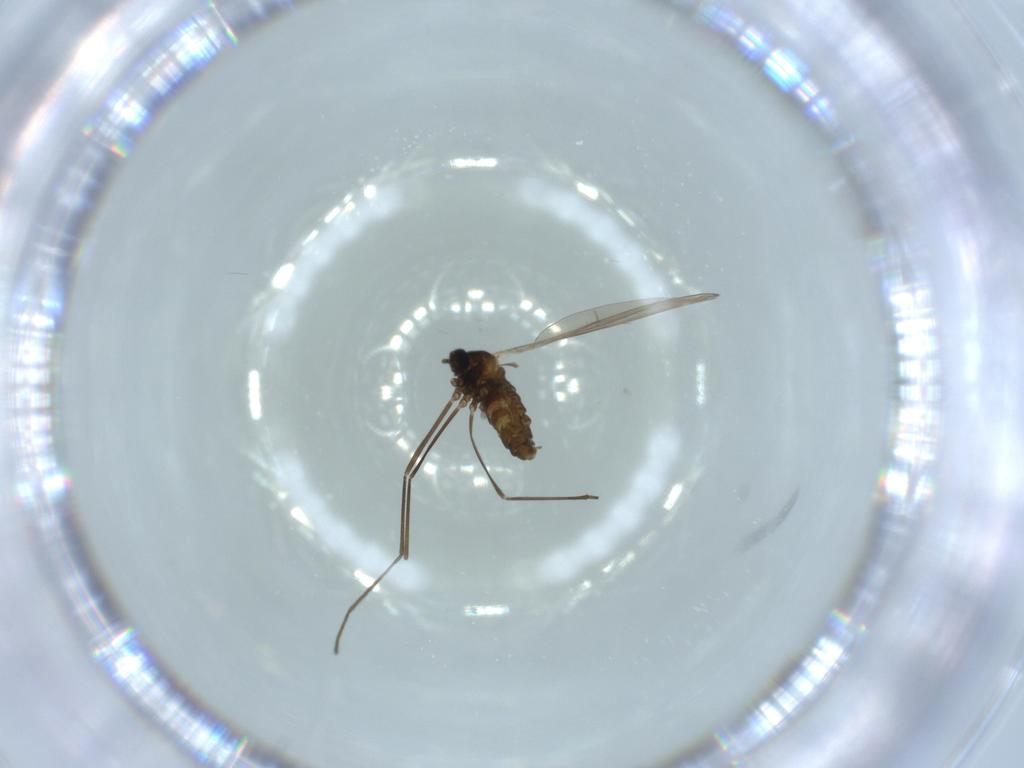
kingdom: Animalia
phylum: Arthropoda
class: Insecta
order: Diptera
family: Cecidomyiidae
